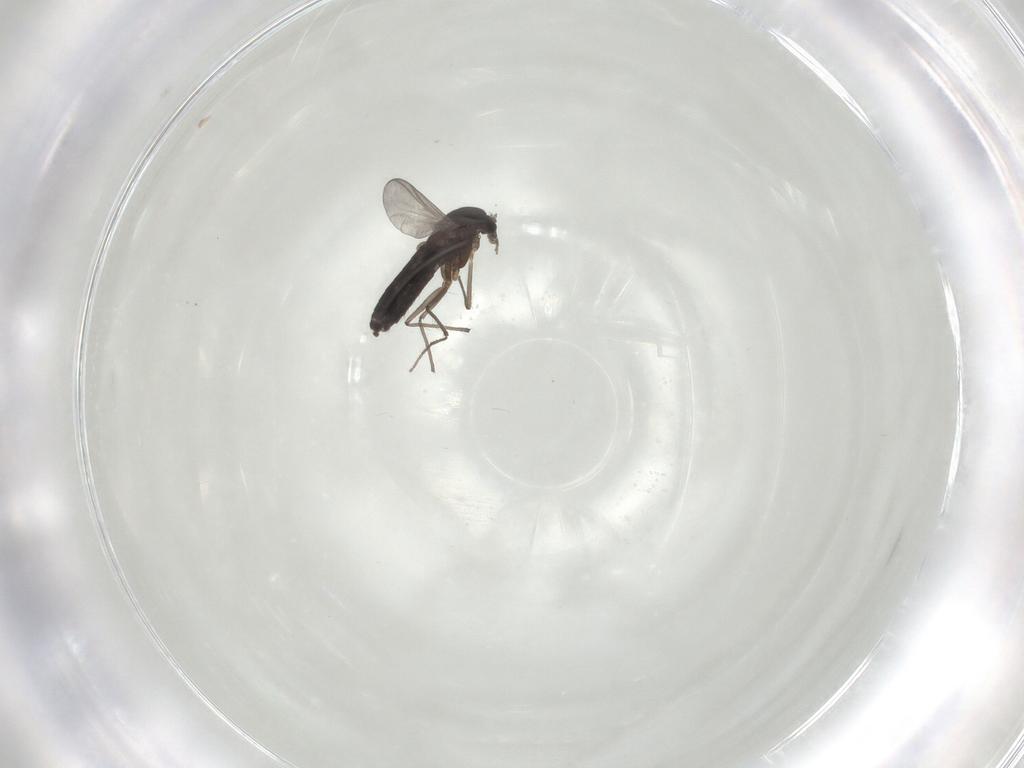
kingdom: Animalia
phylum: Arthropoda
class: Insecta
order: Diptera
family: Chironomidae
